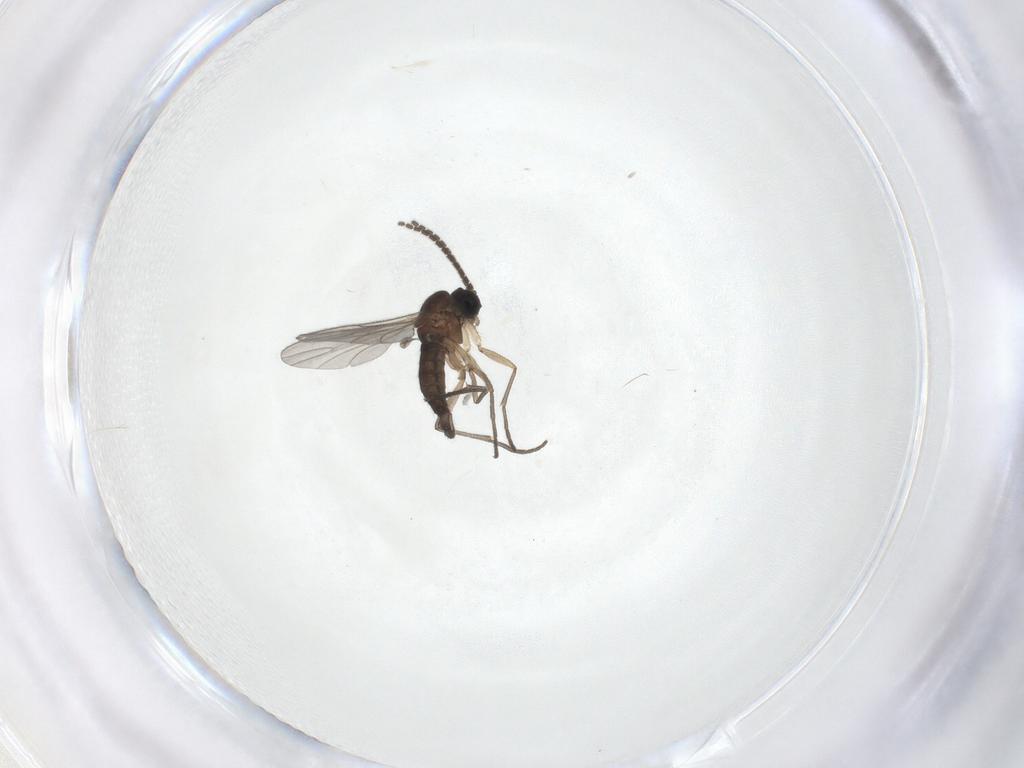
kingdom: Animalia
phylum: Arthropoda
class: Insecta
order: Diptera
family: Sciaridae
